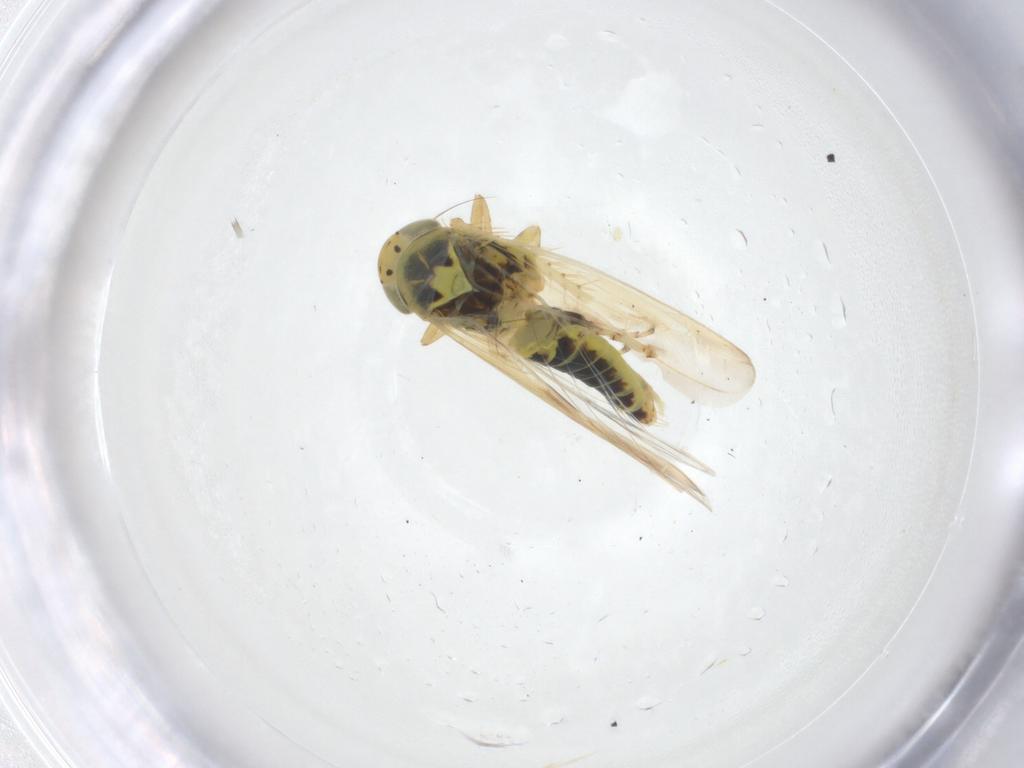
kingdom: Animalia
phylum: Arthropoda
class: Insecta
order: Hemiptera
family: Cicadellidae
